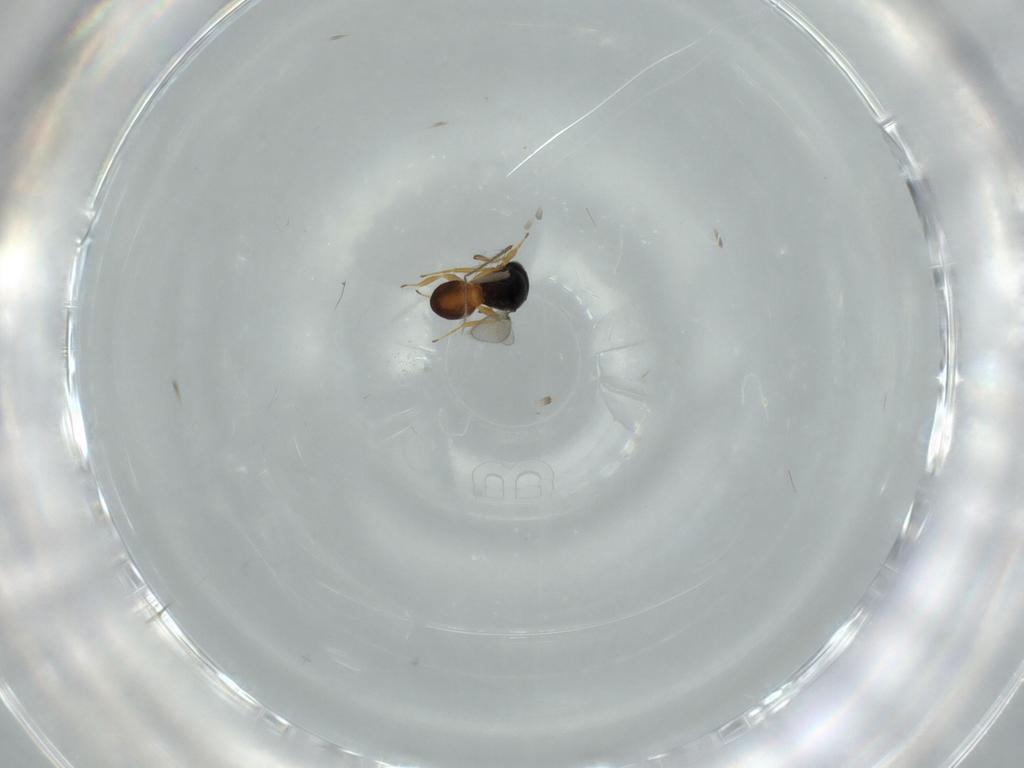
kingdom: Animalia
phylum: Arthropoda
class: Insecta
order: Hymenoptera
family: Scelionidae
